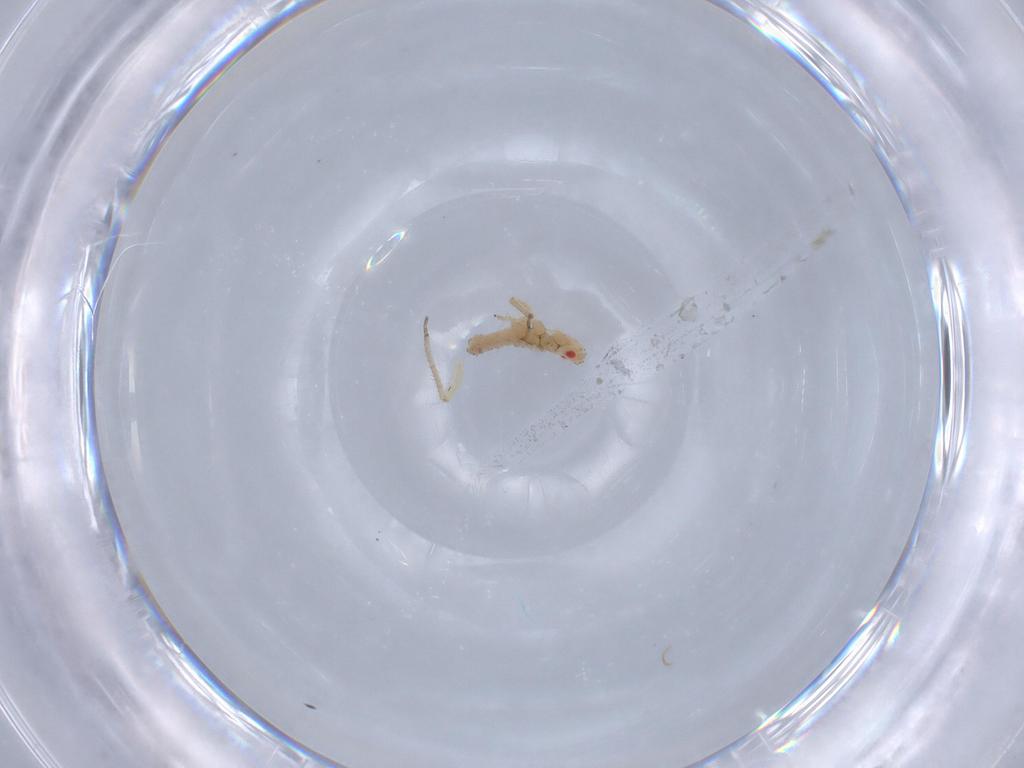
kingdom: Animalia
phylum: Arthropoda
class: Insecta
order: Hemiptera
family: Aphididae
